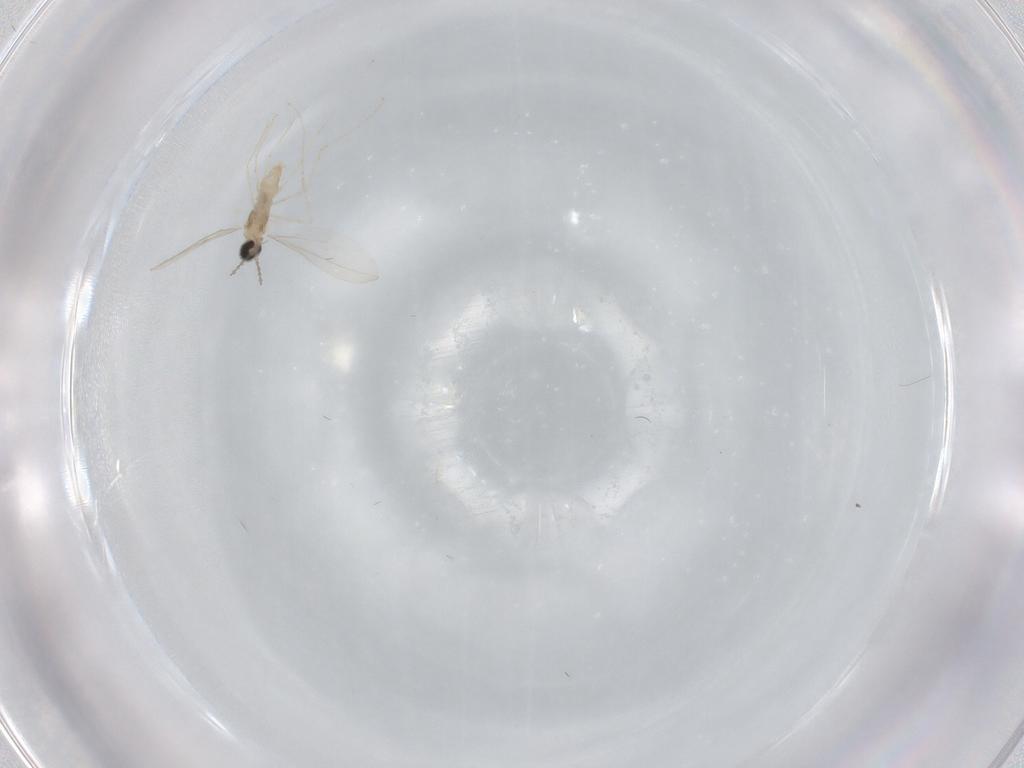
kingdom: Animalia
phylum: Arthropoda
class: Insecta
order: Diptera
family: Cecidomyiidae
